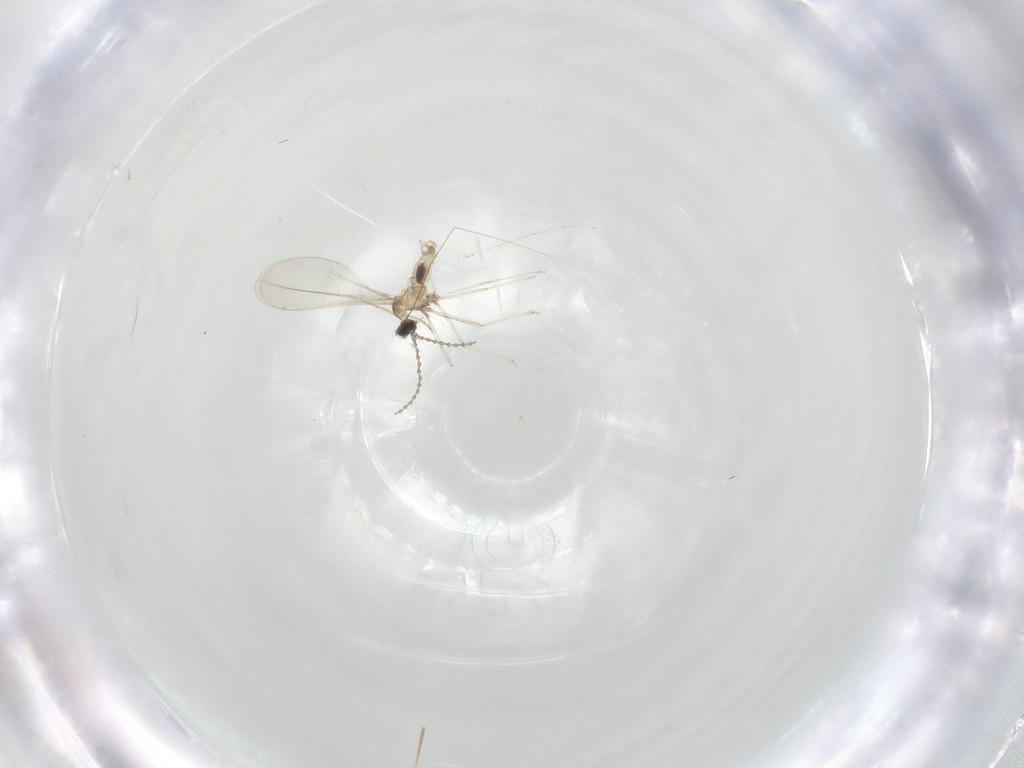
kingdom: Animalia
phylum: Arthropoda
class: Insecta
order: Diptera
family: Cecidomyiidae
